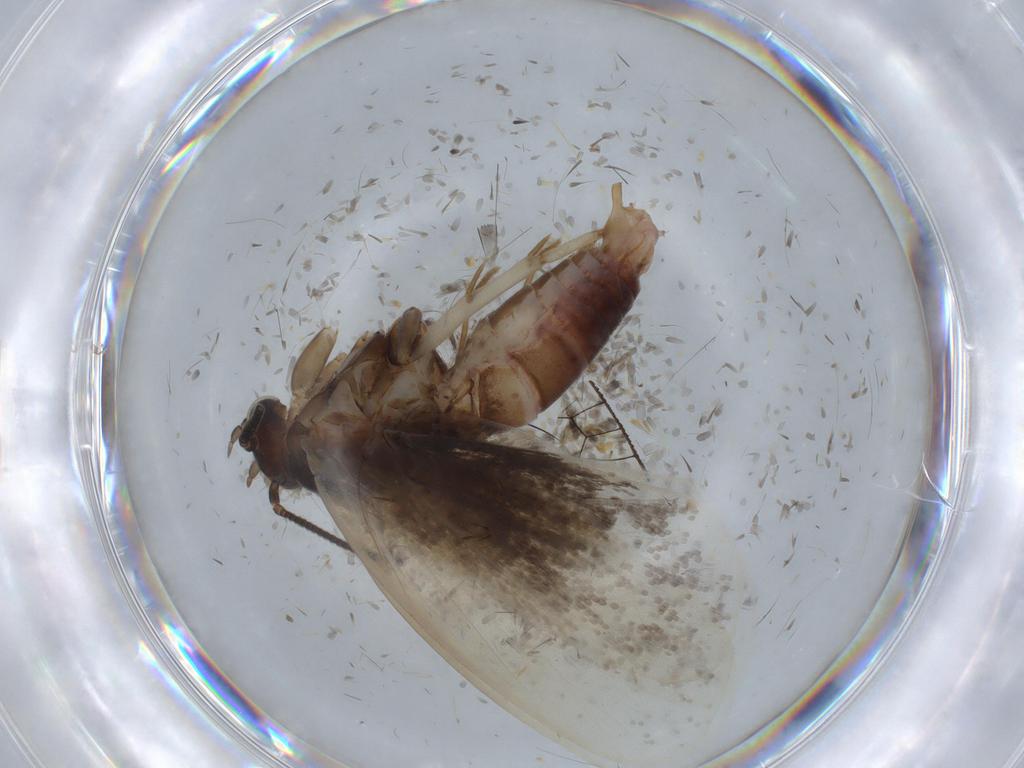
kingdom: Animalia
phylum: Arthropoda
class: Insecta
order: Lepidoptera
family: Tineidae
